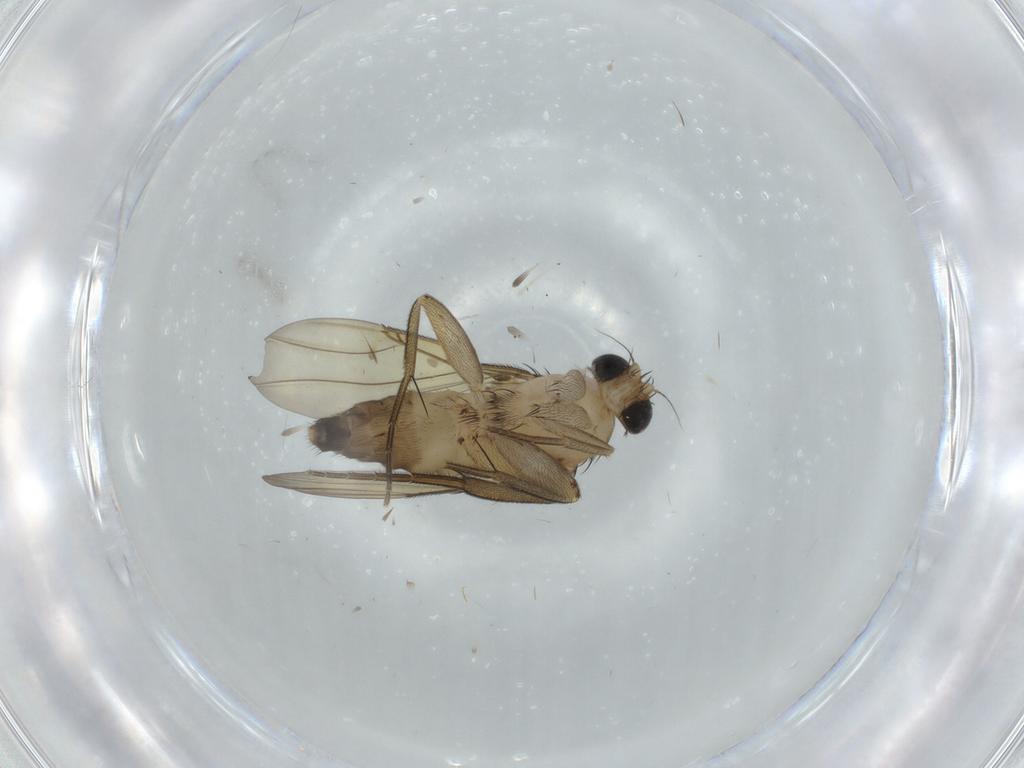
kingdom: Animalia
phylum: Arthropoda
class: Insecta
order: Diptera
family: Phoridae
